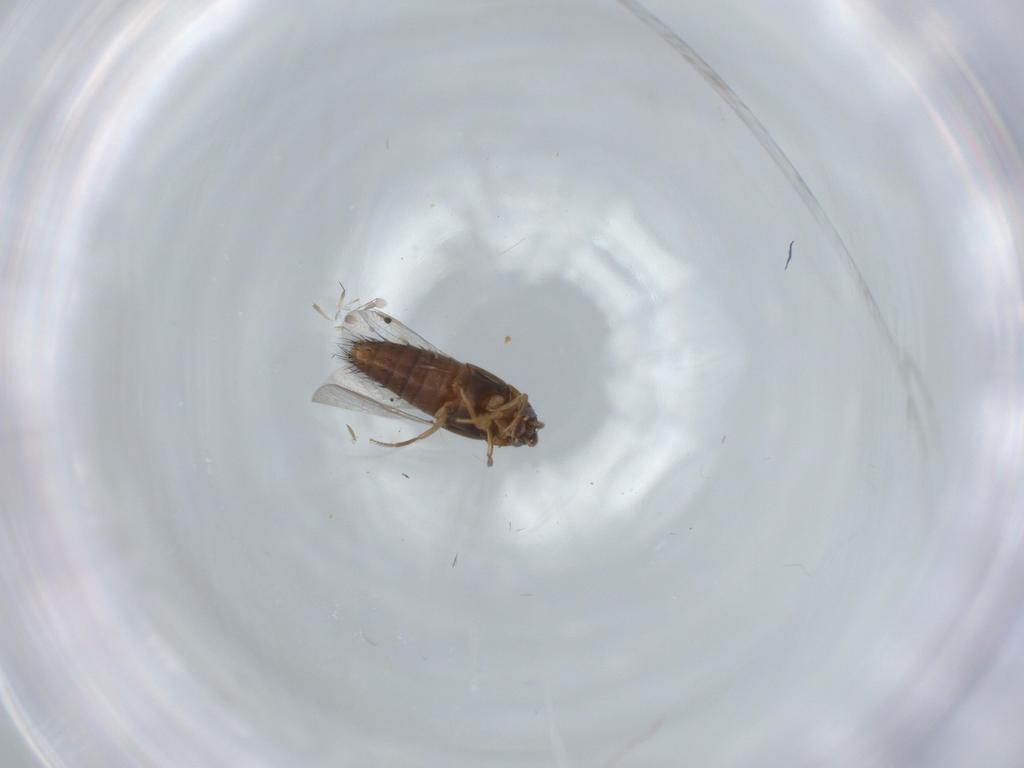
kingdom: Animalia
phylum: Arthropoda
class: Insecta
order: Coleoptera
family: Staphylinidae
